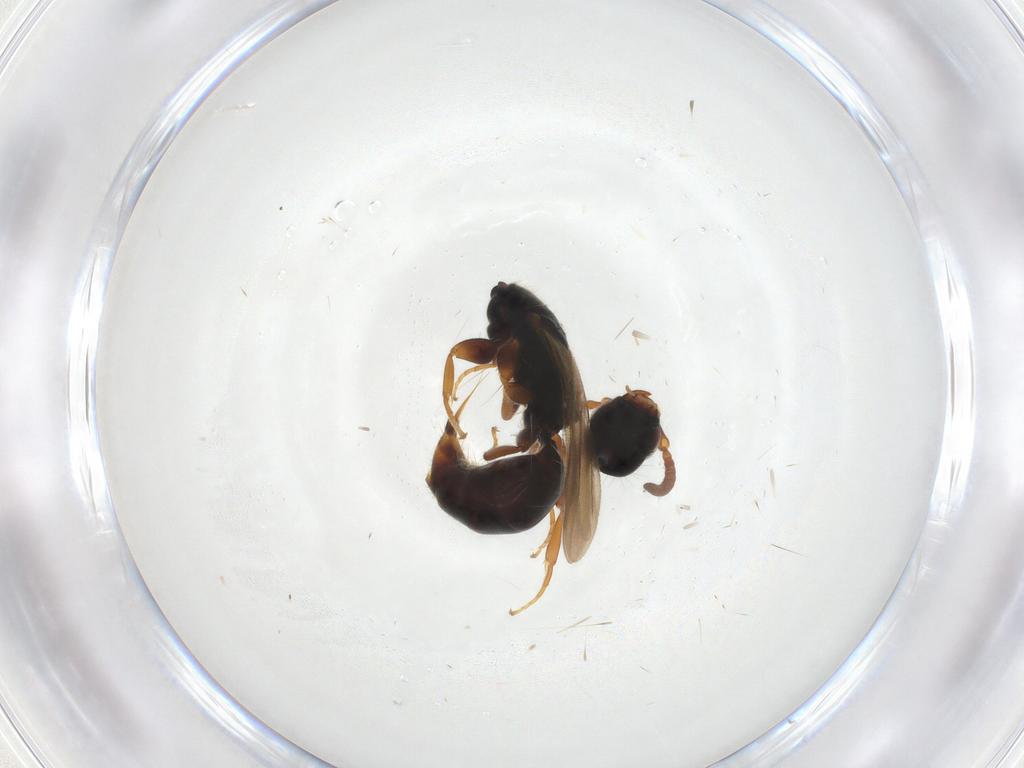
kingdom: Animalia
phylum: Arthropoda
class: Insecta
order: Hymenoptera
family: Bethylidae
